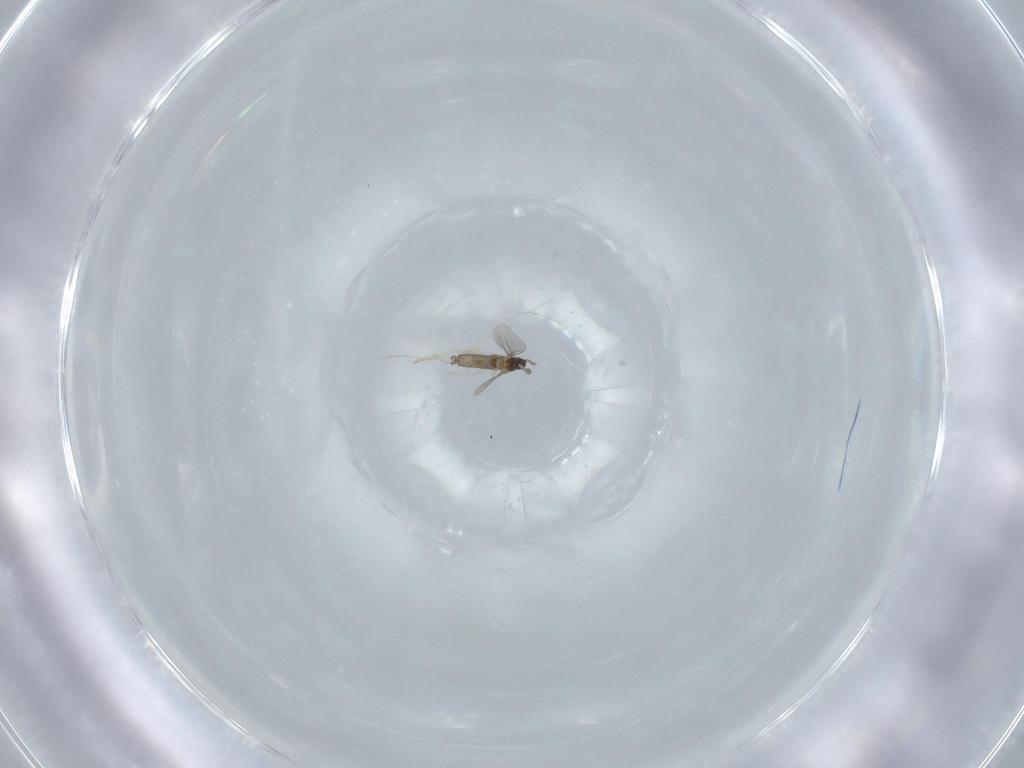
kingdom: Animalia
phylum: Arthropoda
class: Insecta
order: Diptera
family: Cecidomyiidae
